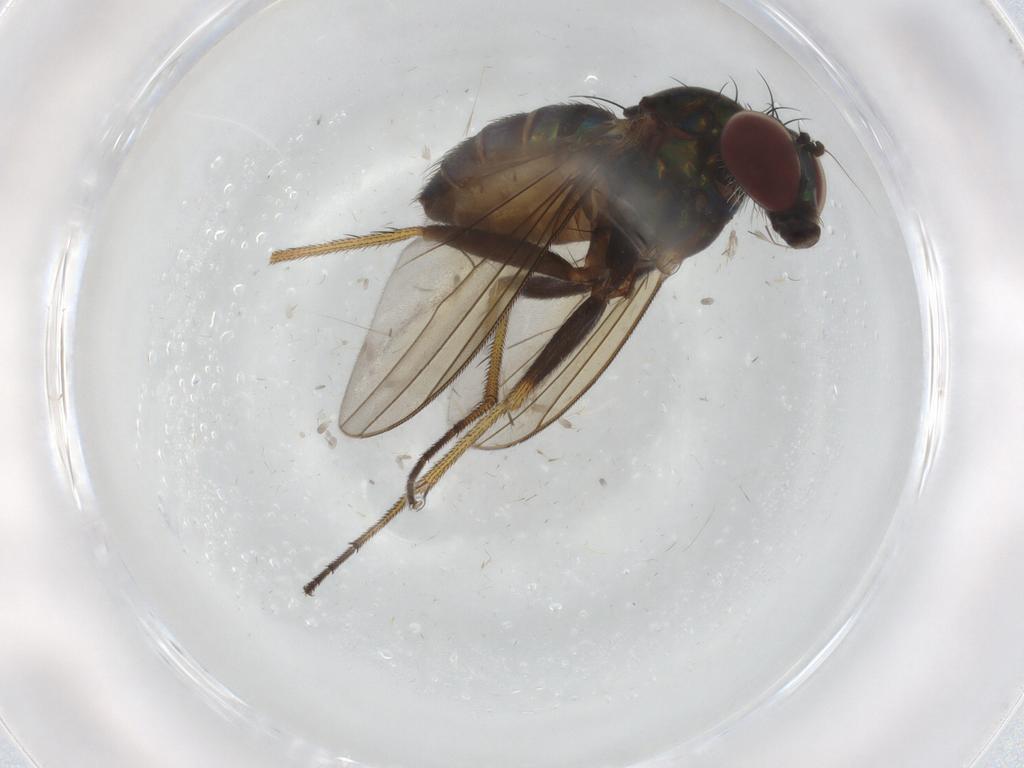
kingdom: Animalia
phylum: Arthropoda
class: Insecta
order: Diptera
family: Dolichopodidae
